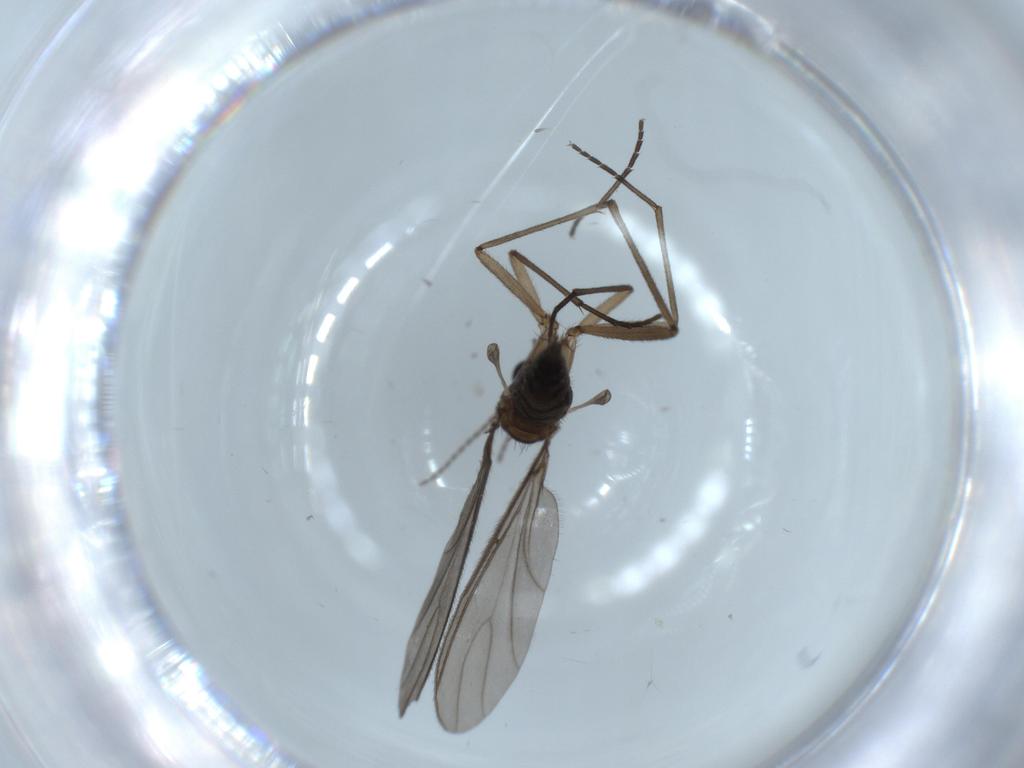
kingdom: Animalia
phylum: Arthropoda
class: Insecta
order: Diptera
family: Sciaridae
